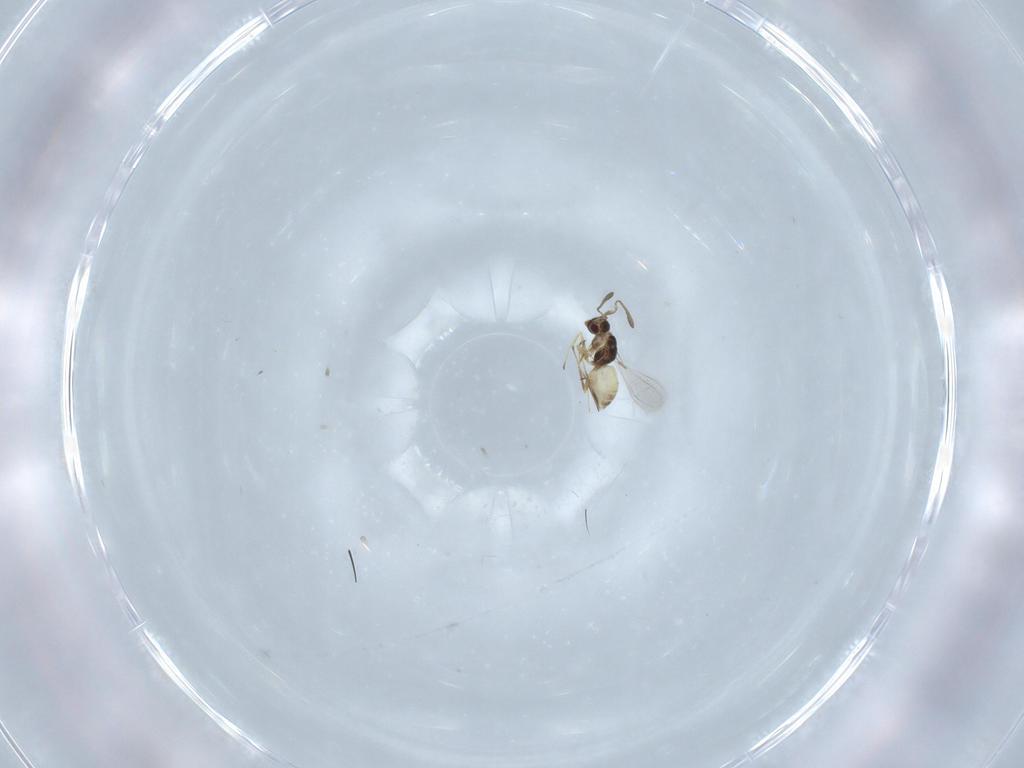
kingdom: Animalia
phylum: Arthropoda
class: Insecta
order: Hymenoptera
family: Mymaridae
